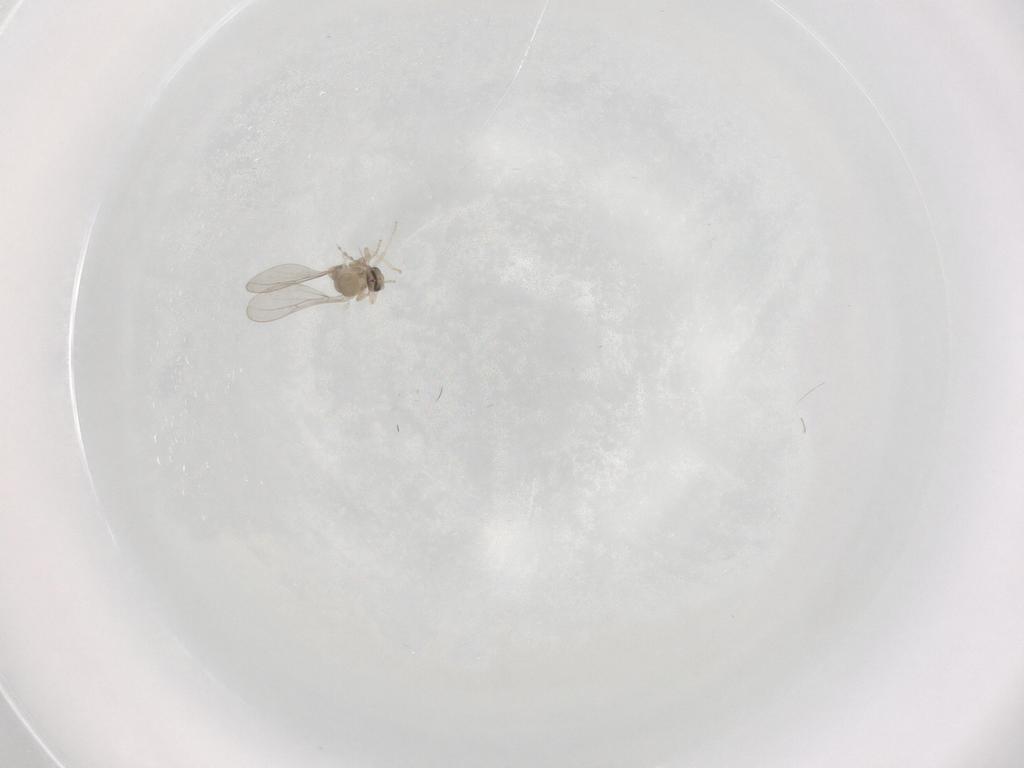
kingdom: Animalia
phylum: Arthropoda
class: Insecta
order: Diptera
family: Cecidomyiidae
